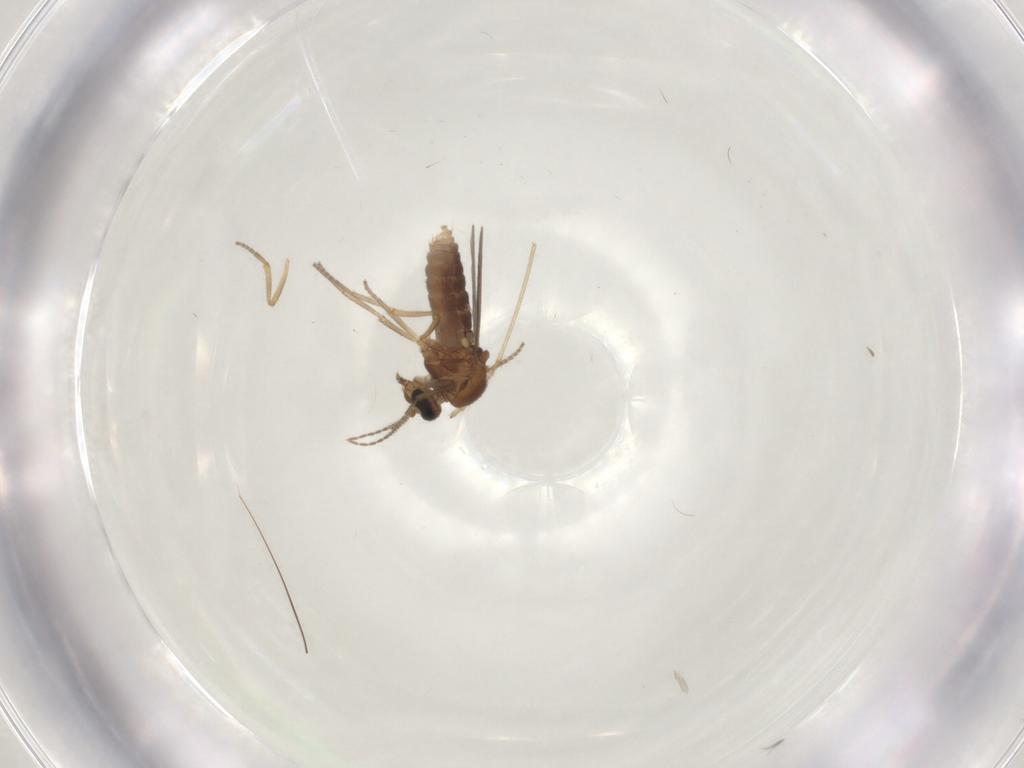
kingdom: Animalia
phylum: Arthropoda
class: Insecta
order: Diptera
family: Ceratopogonidae
